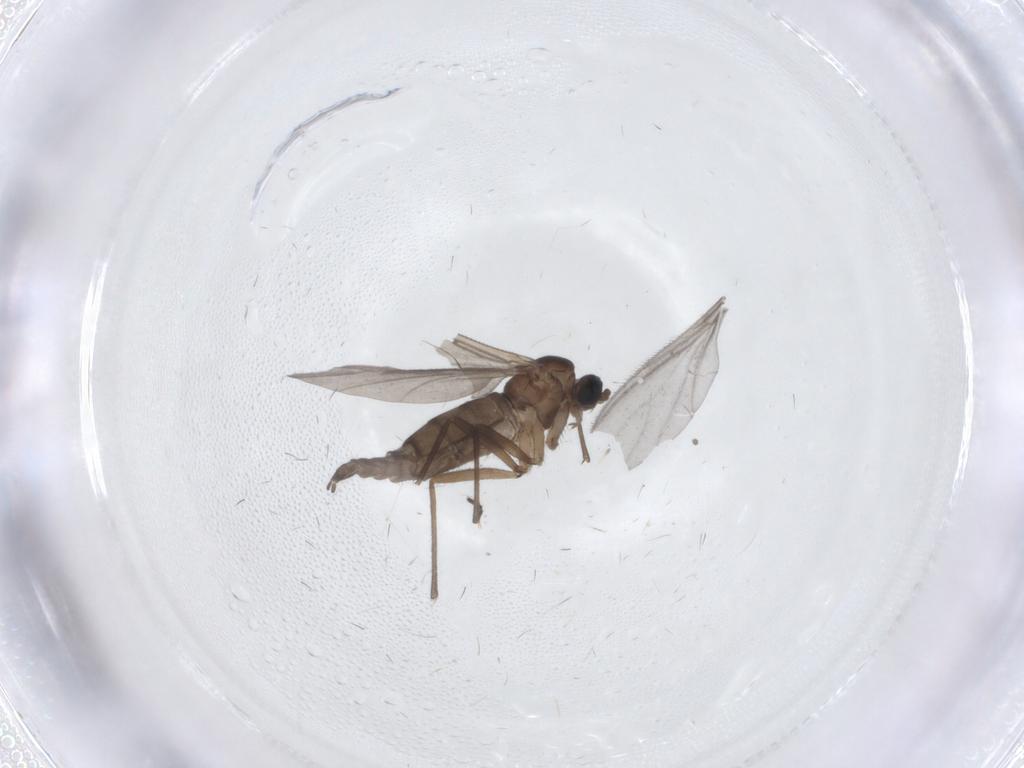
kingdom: Animalia
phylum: Arthropoda
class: Insecta
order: Diptera
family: Sciaridae
